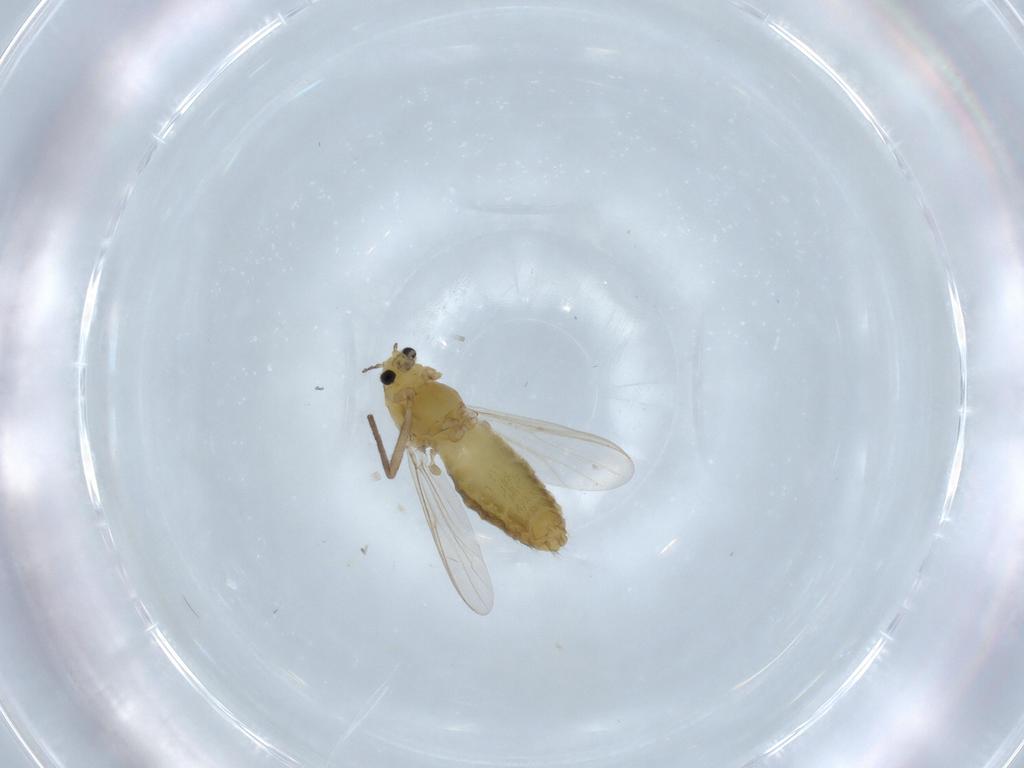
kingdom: Animalia
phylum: Arthropoda
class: Insecta
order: Diptera
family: Chironomidae
